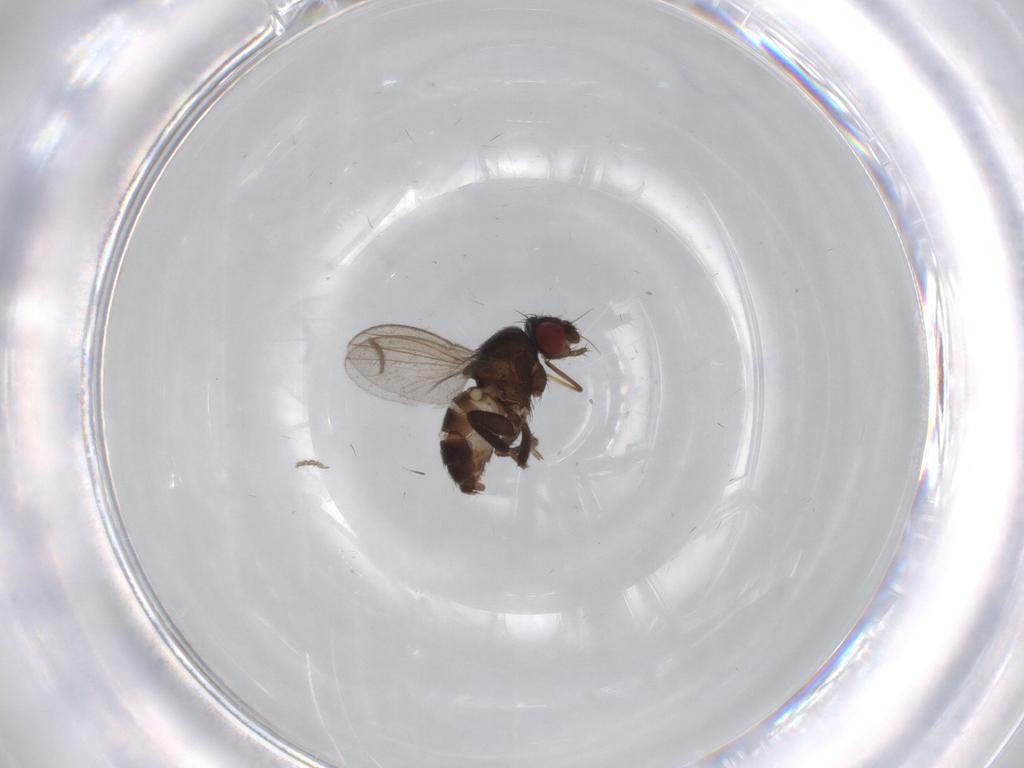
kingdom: Animalia
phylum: Arthropoda
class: Insecta
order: Diptera
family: Milichiidae
